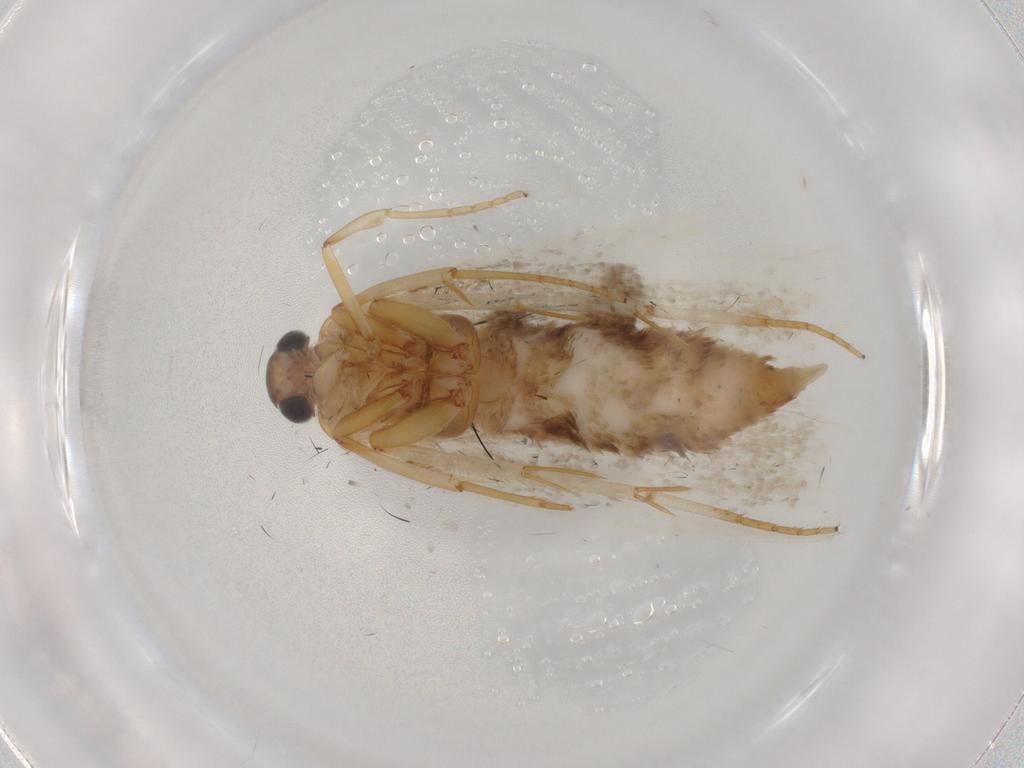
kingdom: Animalia
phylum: Arthropoda
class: Insecta
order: Lepidoptera
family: Blastobasidae
